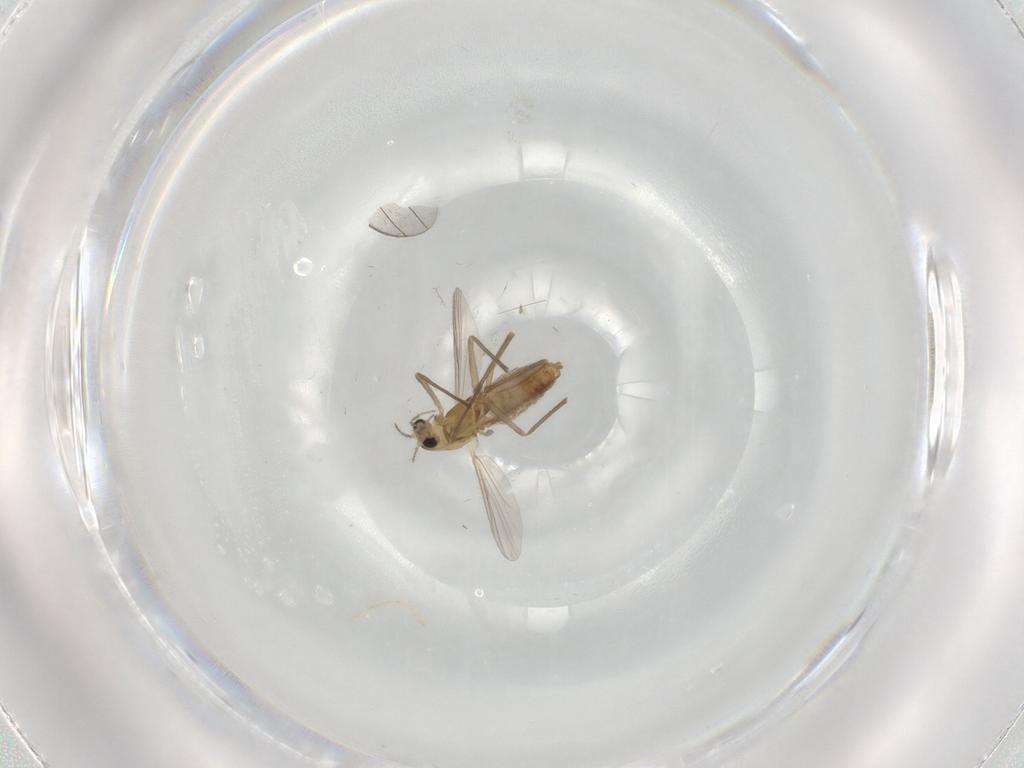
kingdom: Animalia
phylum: Arthropoda
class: Insecta
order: Diptera
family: Chironomidae
